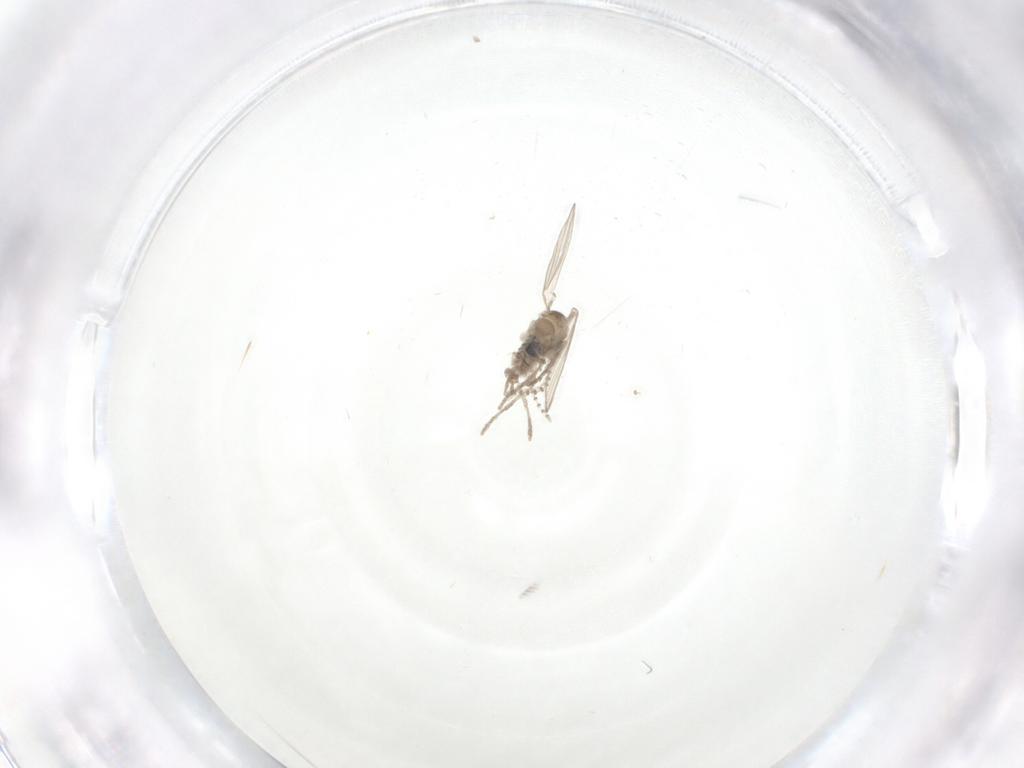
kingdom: Animalia
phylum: Arthropoda
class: Insecta
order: Diptera
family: Psychodidae
